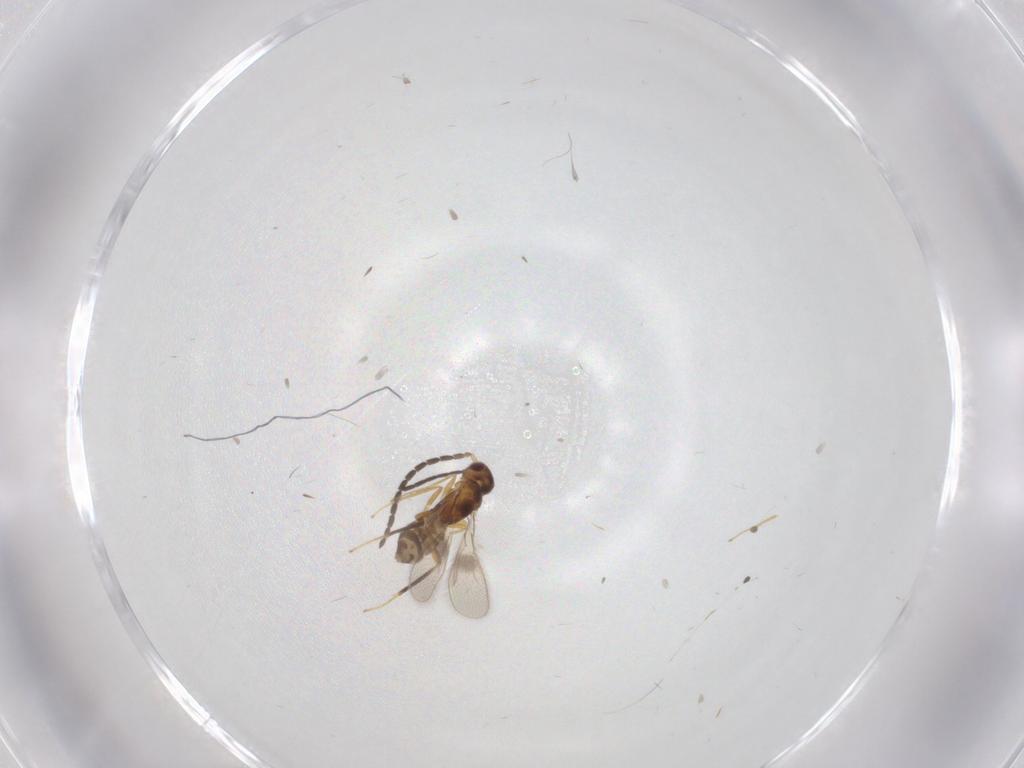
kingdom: Animalia
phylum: Arthropoda
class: Insecta
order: Hymenoptera
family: Mymaridae
